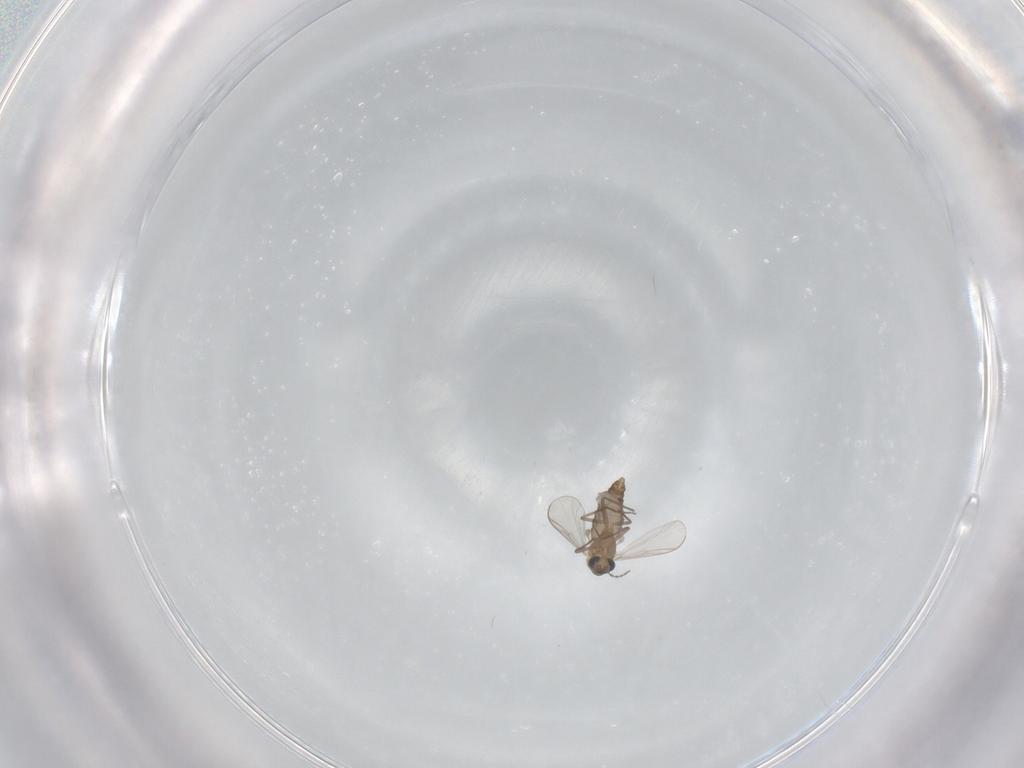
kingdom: Animalia
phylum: Arthropoda
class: Insecta
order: Diptera
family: Chironomidae
